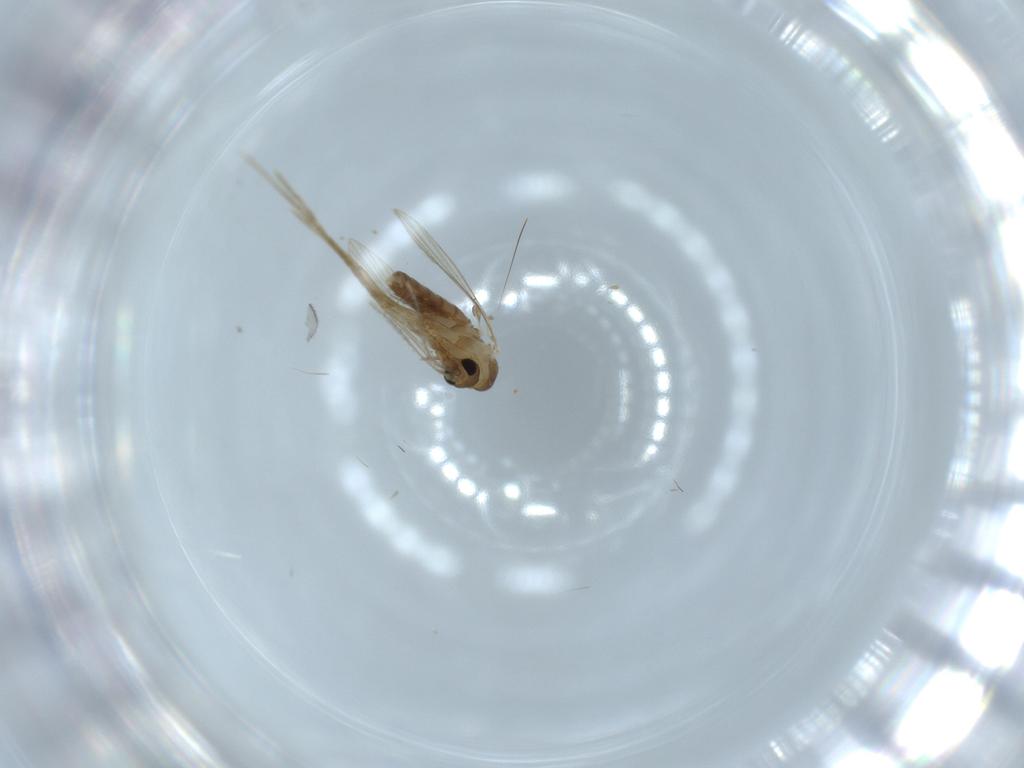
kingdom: Animalia
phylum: Arthropoda
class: Insecta
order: Diptera
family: Psychodidae
